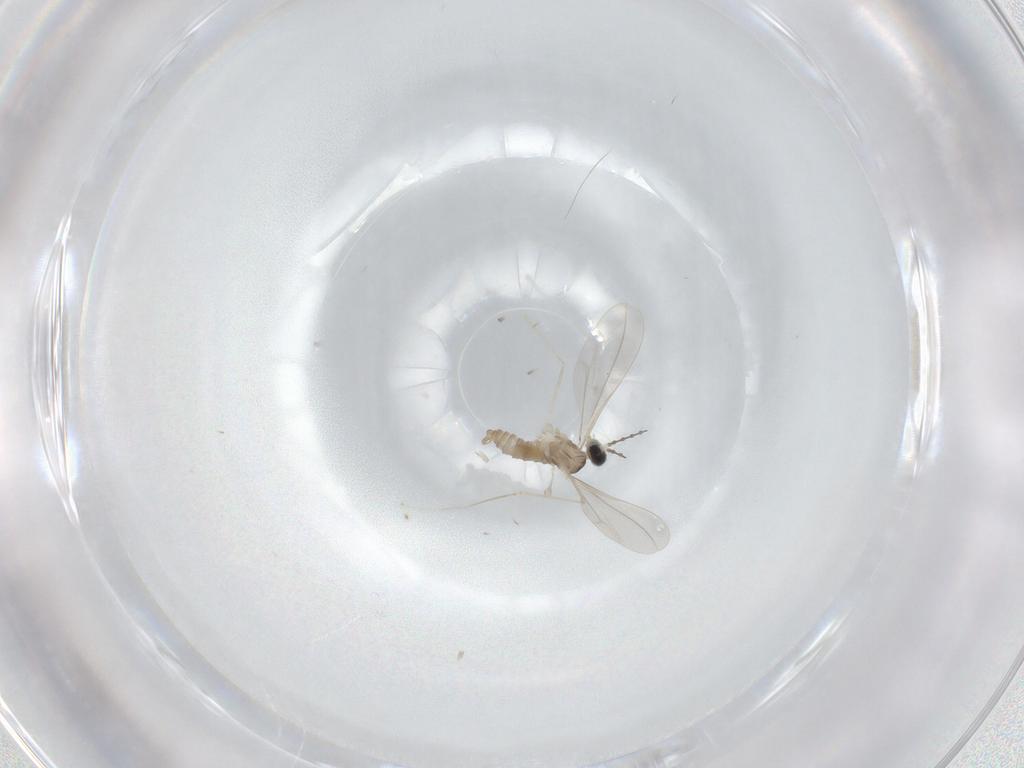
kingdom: Animalia
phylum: Arthropoda
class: Insecta
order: Diptera
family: Cecidomyiidae
